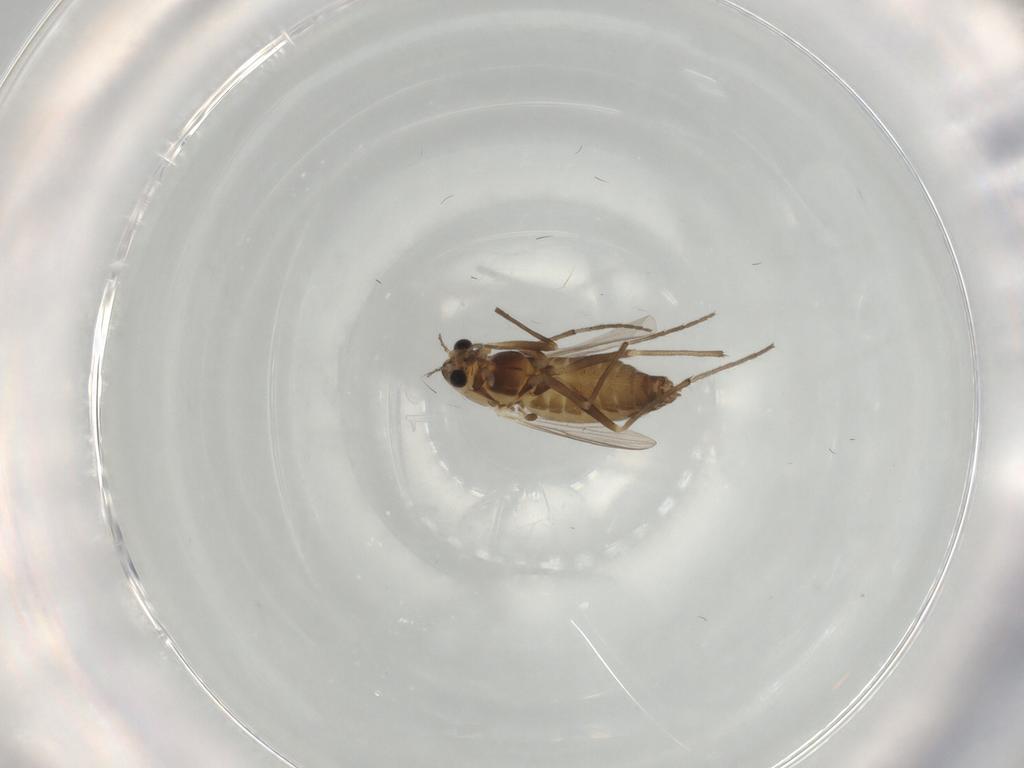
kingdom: Animalia
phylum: Arthropoda
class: Insecta
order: Diptera
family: Chironomidae
